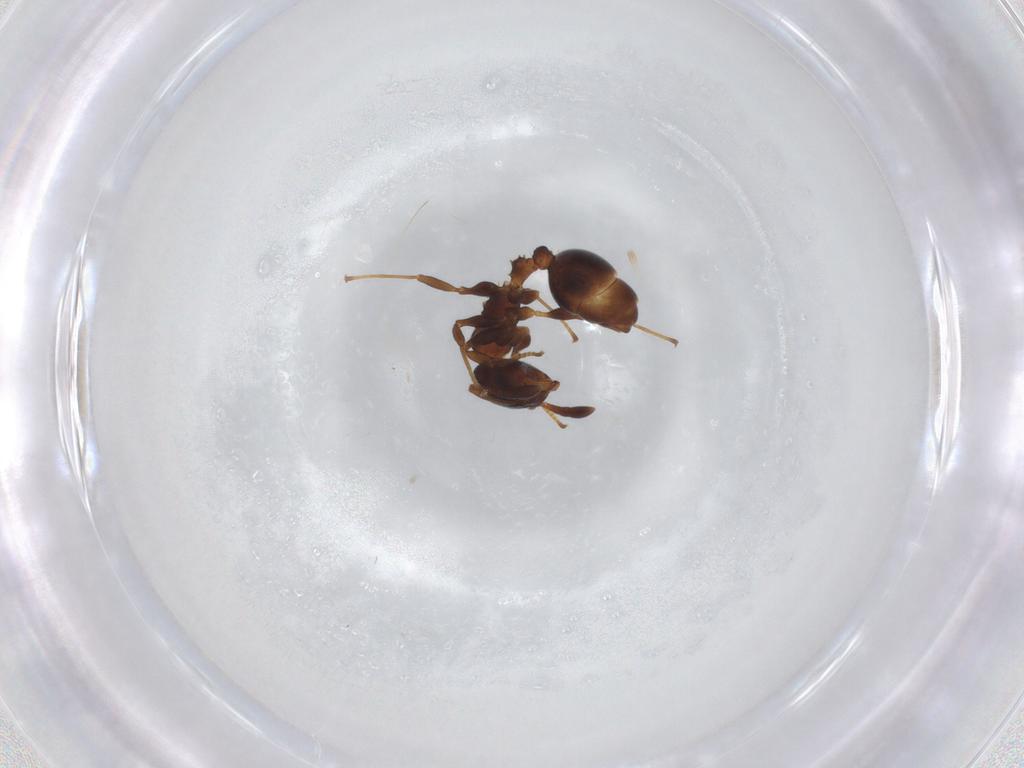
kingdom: Animalia
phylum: Arthropoda
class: Insecta
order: Hymenoptera
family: Formicidae
